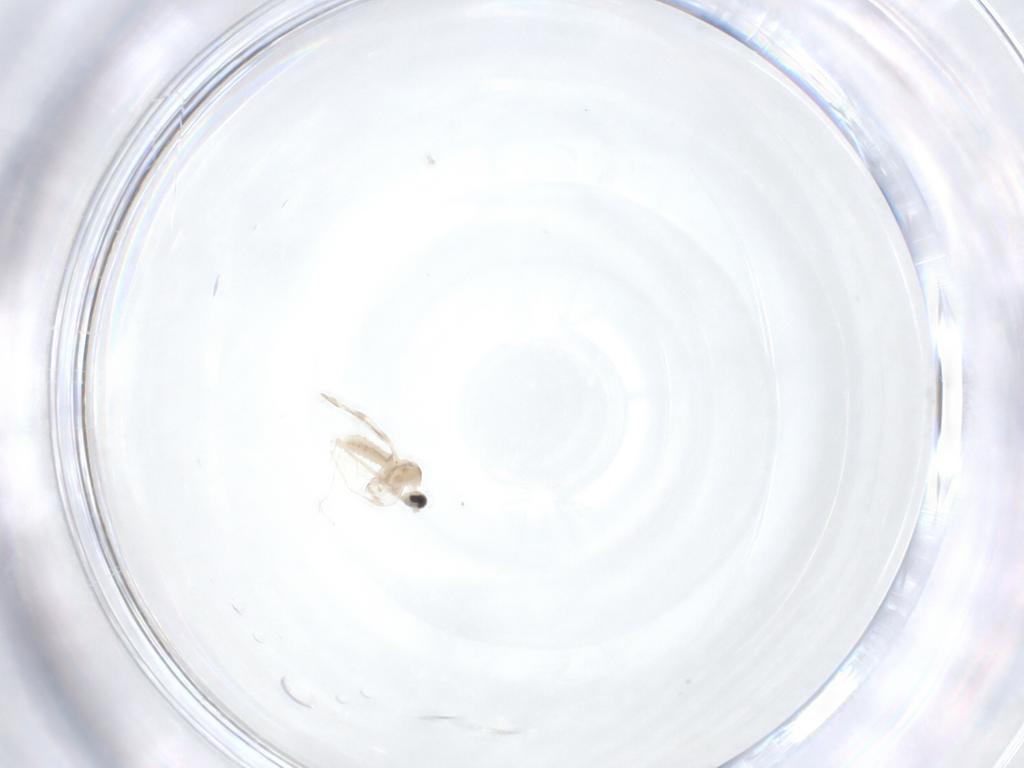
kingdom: Animalia
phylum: Arthropoda
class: Insecta
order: Diptera
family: Cecidomyiidae
